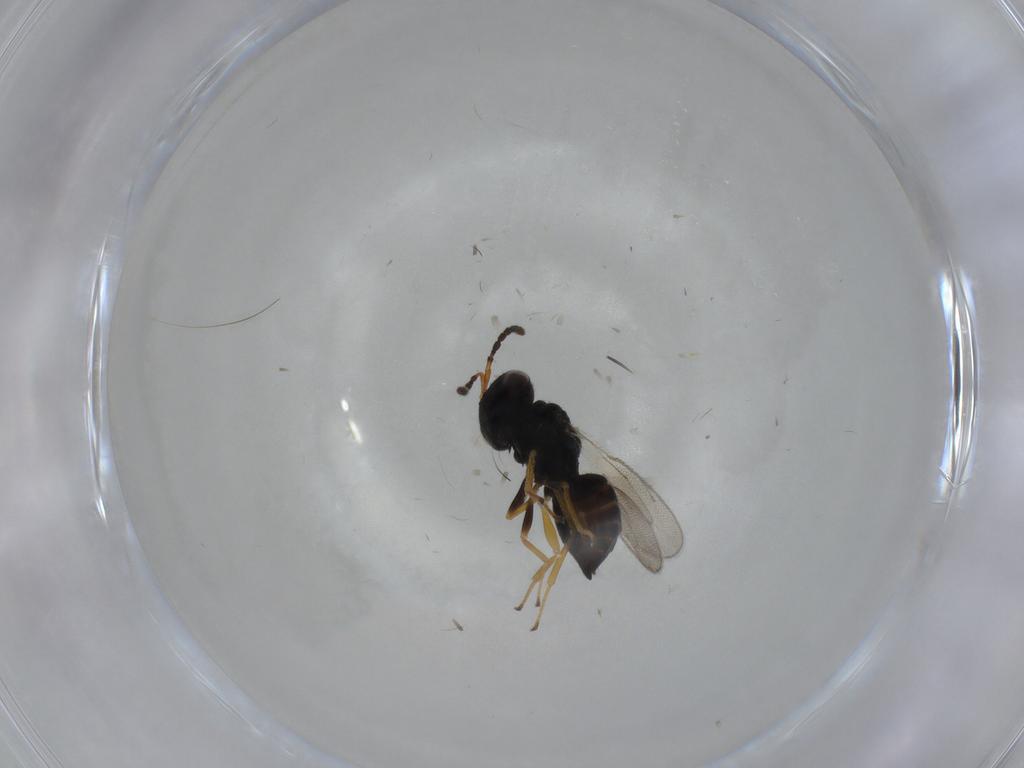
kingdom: Animalia
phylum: Arthropoda
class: Insecta
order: Hymenoptera
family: Pteromalidae
